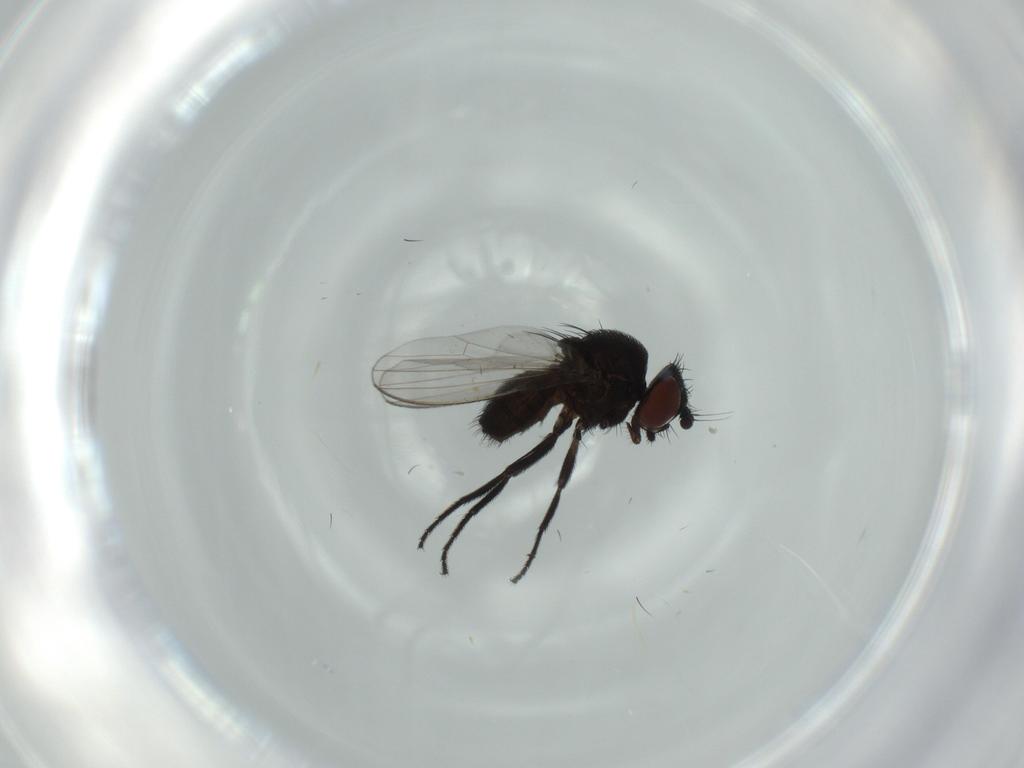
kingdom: Animalia
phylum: Arthropoda
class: Insecta
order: Diptera
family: Milichiidae
